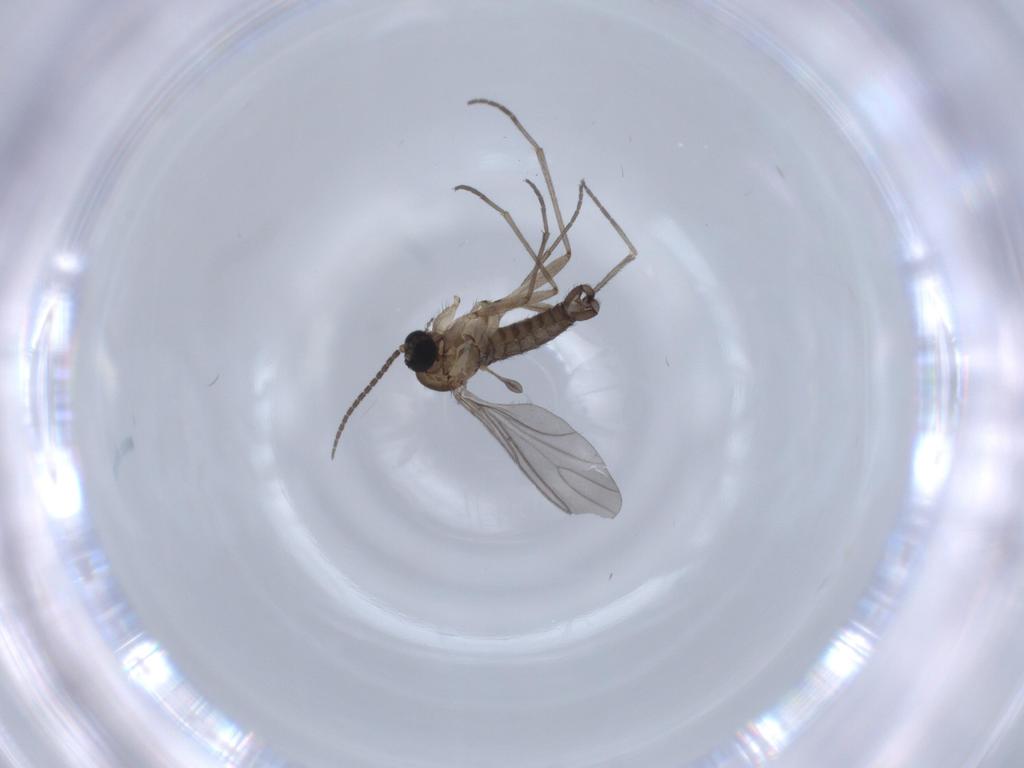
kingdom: Animalia
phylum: Arthropoda
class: Insecta
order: Diptera
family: Sciaridae
